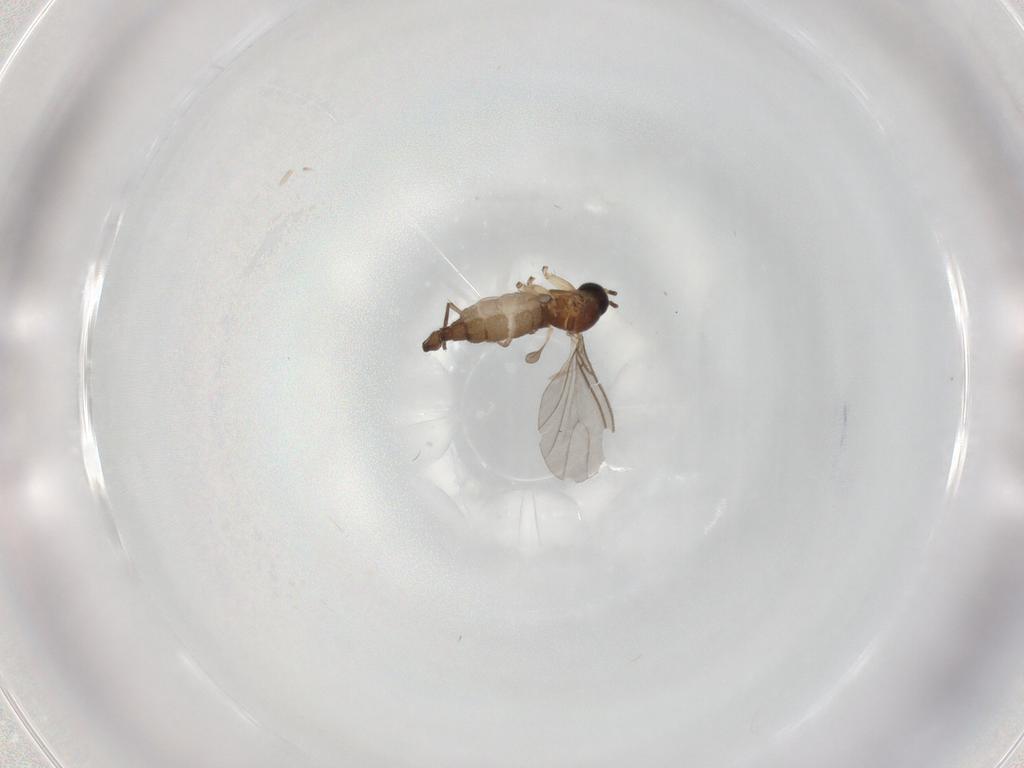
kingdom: Animalia
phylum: Arthropoda
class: Insecta
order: Diptera
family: Sciaridae
